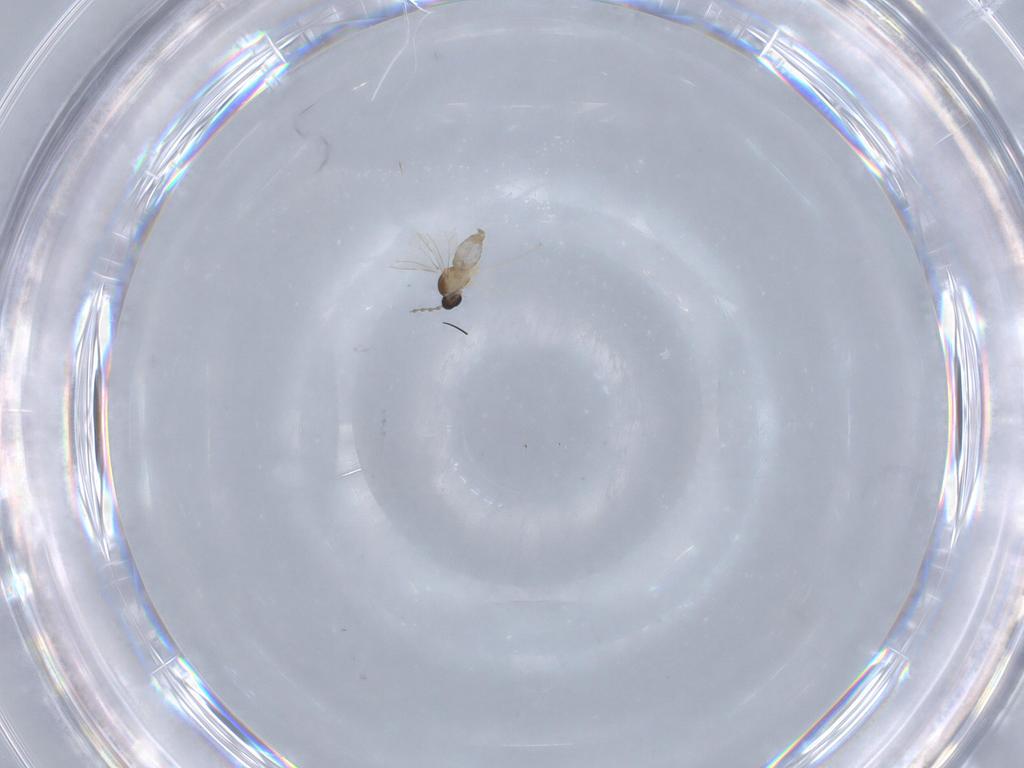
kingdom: Animalia
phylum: Arthropoda
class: Insecta
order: Diptera
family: Cecidomyiidae
